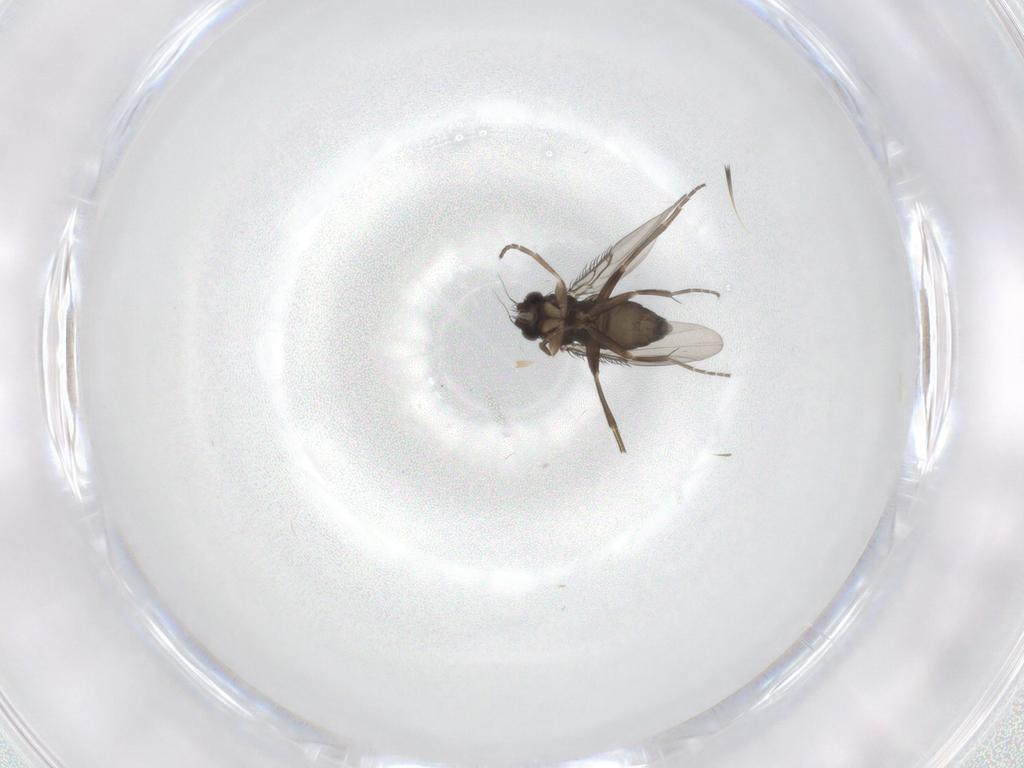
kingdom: Animalia
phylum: Arthropoda
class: Insecta
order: Diptera
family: Phoridae
